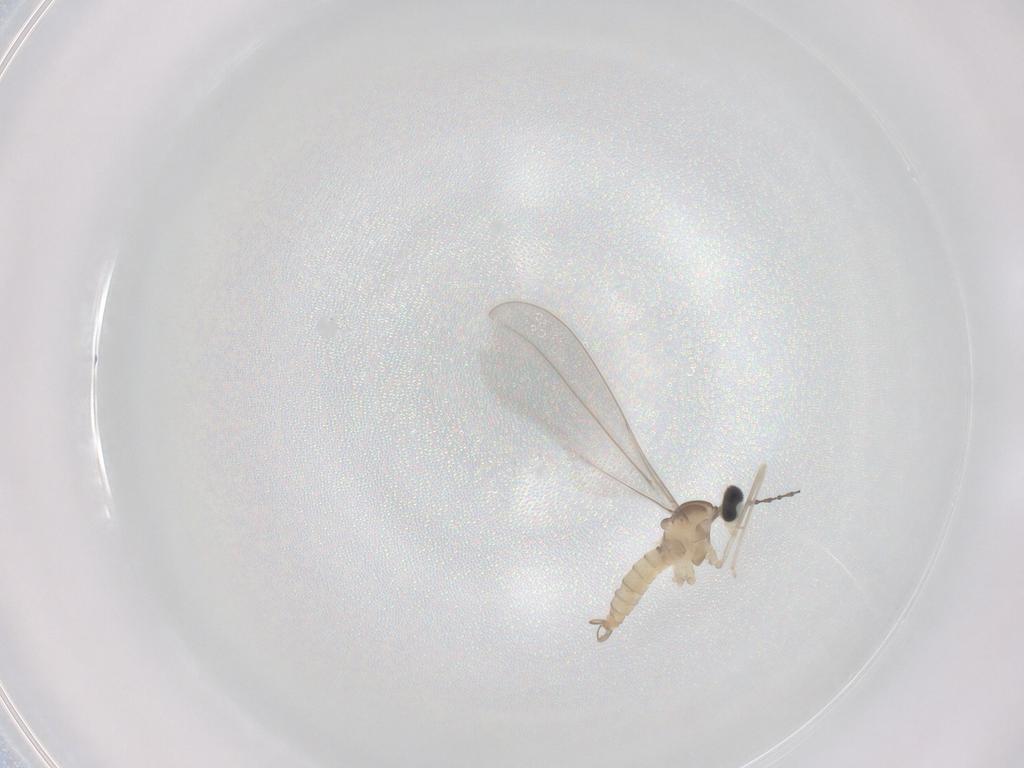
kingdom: Animalia
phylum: Arthropoda
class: Insecta
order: Diptera
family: Cecidomyiidae
